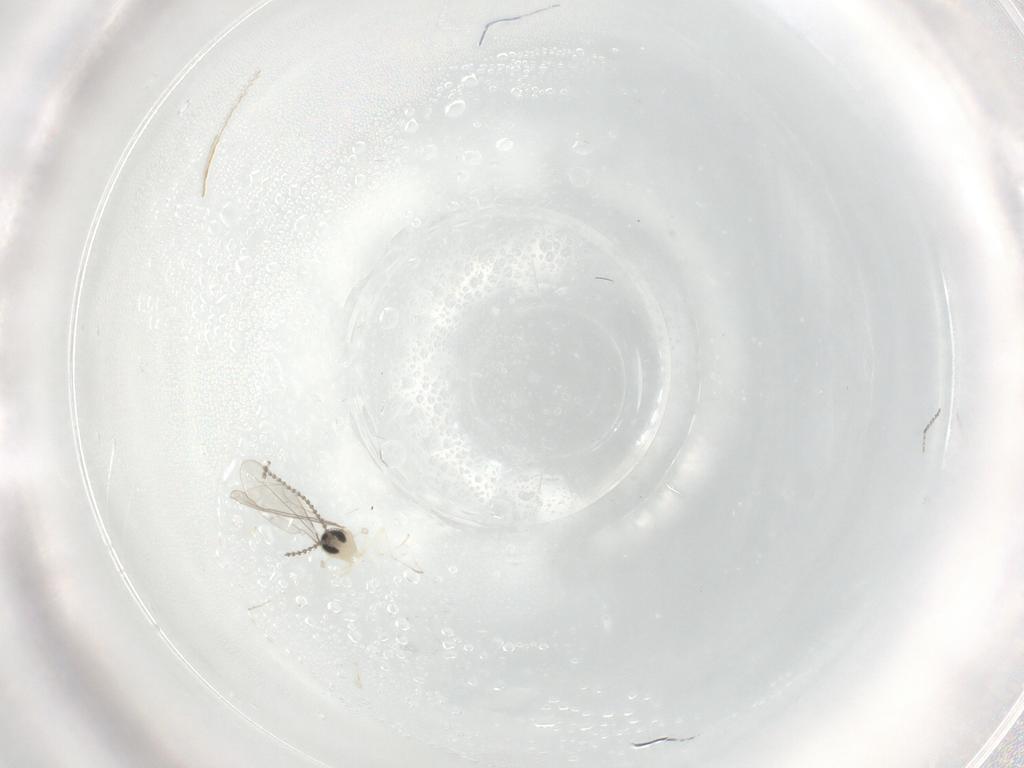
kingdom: Animalia
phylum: Arthropoda
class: Insecta
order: Diptera
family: Chironomidae
